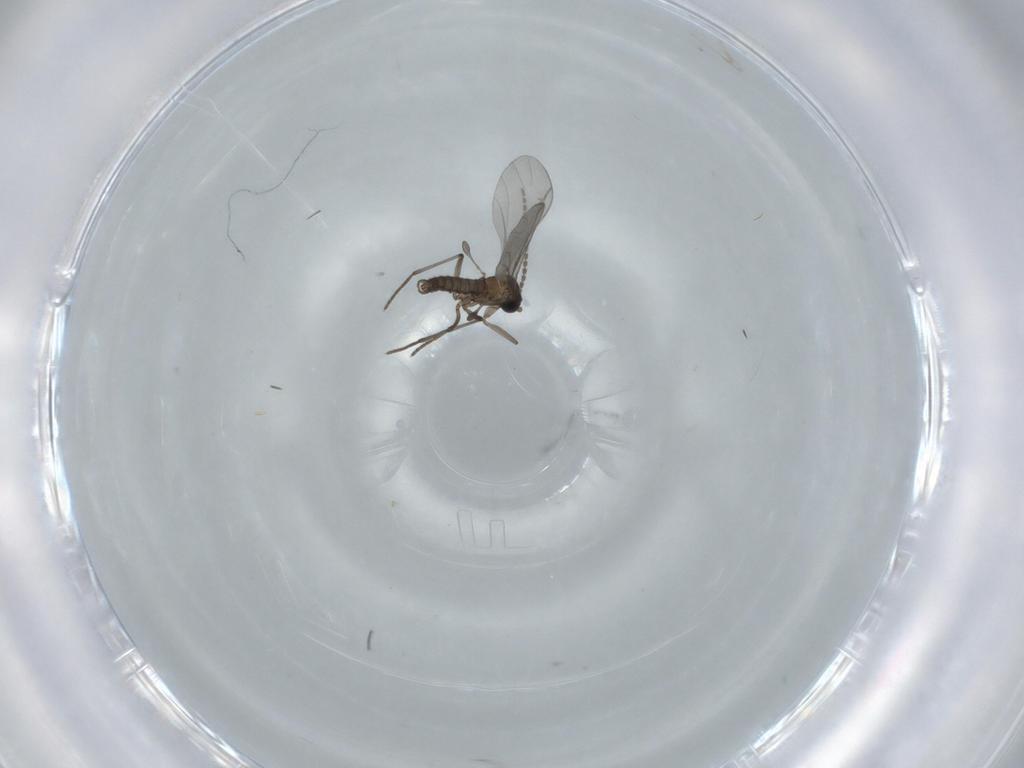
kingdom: Animalia
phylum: Arthropoda
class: Insecta
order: Diptera
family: Sciaridae
